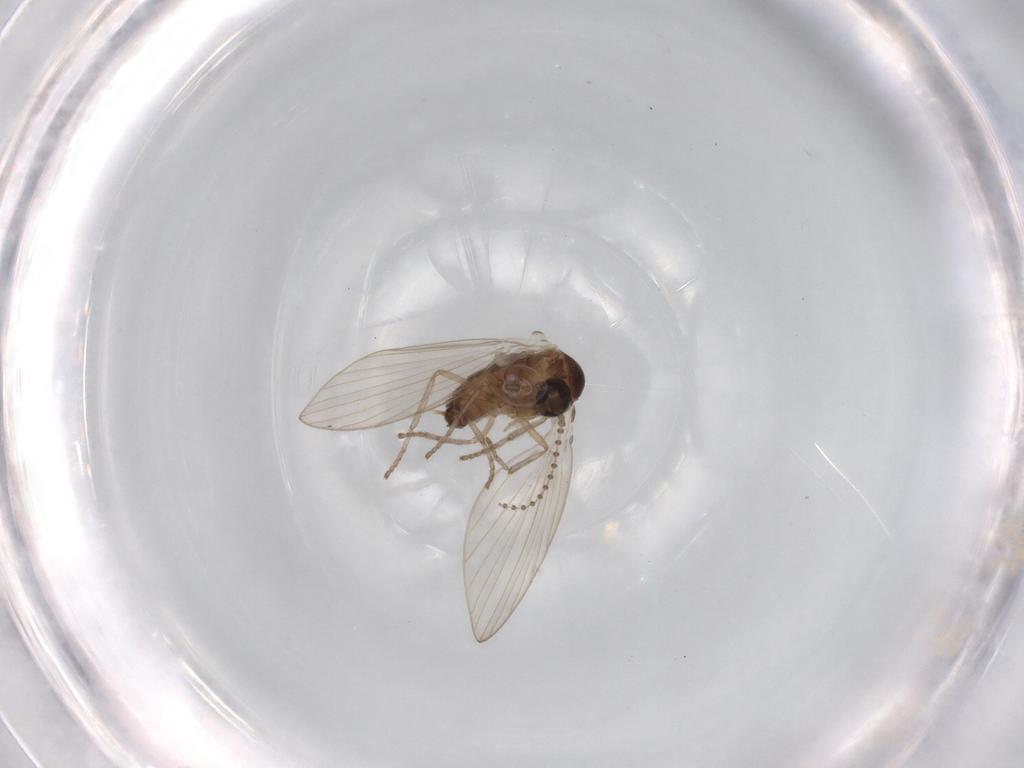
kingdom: Animalia
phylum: Arthropoda
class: Insecta
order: Diptera
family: Psychodidae
